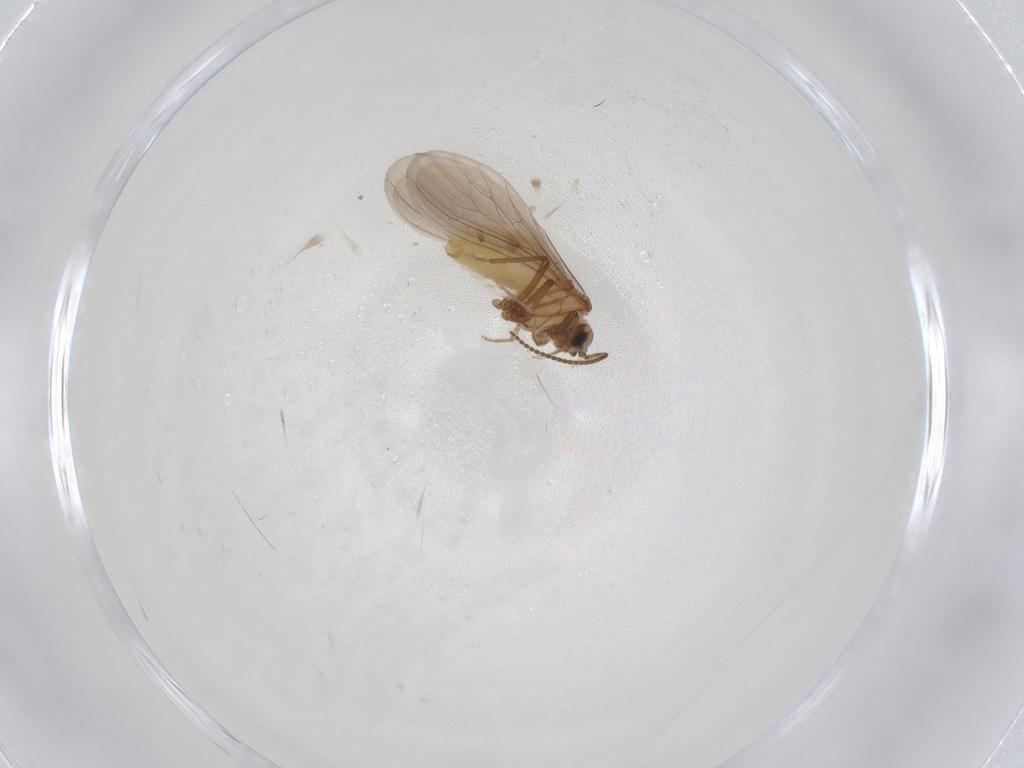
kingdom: Animalia
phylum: Arthropoda
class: Insecta
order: Neuroptera
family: Coniopterygidae
